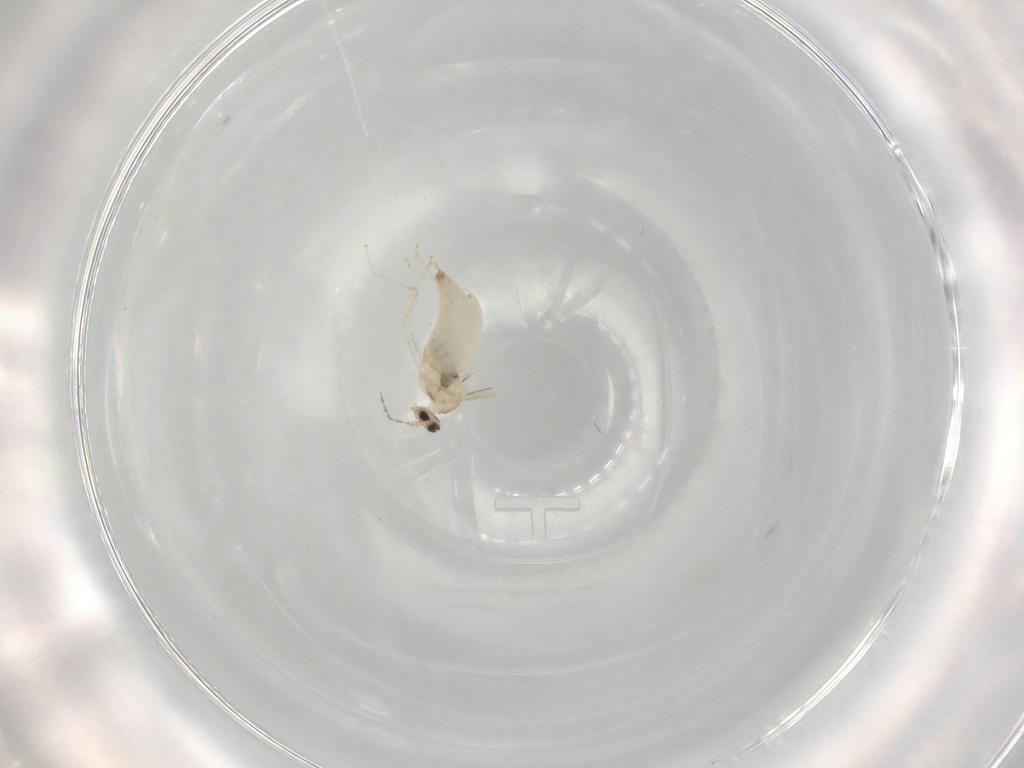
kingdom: Animalia
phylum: Arthropoda
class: Insecta
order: Diptera
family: Cecidomyiidae
